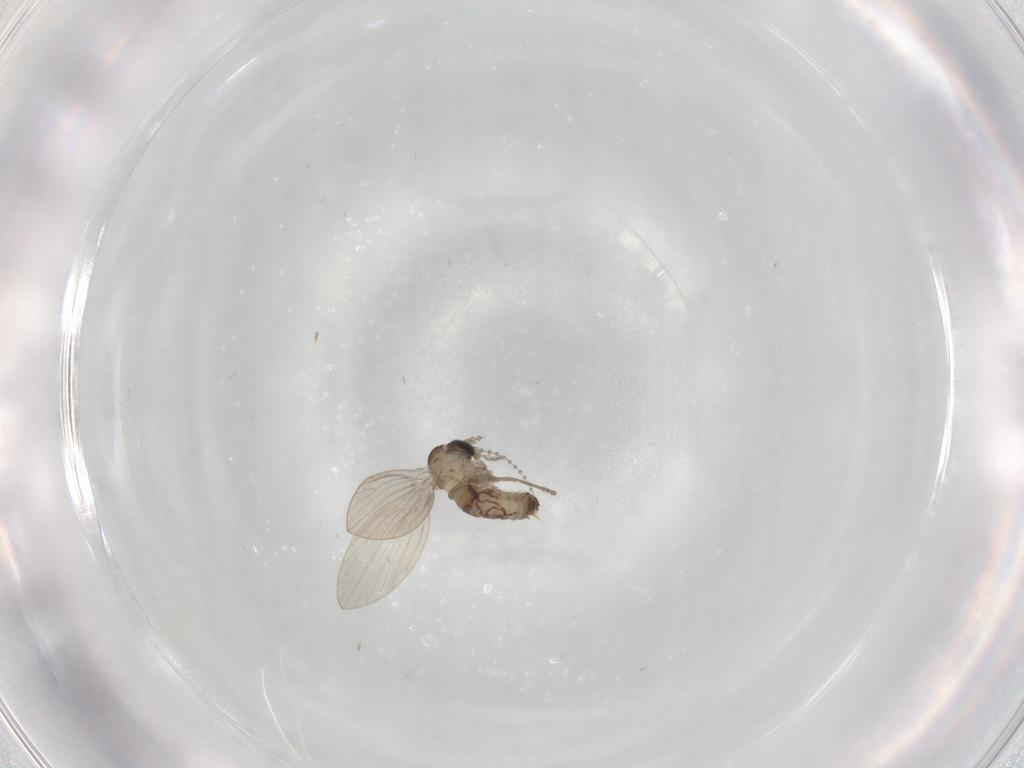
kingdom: Animalia
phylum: Arthropoda
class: Insecta
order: Diptera
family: Psychodidae
